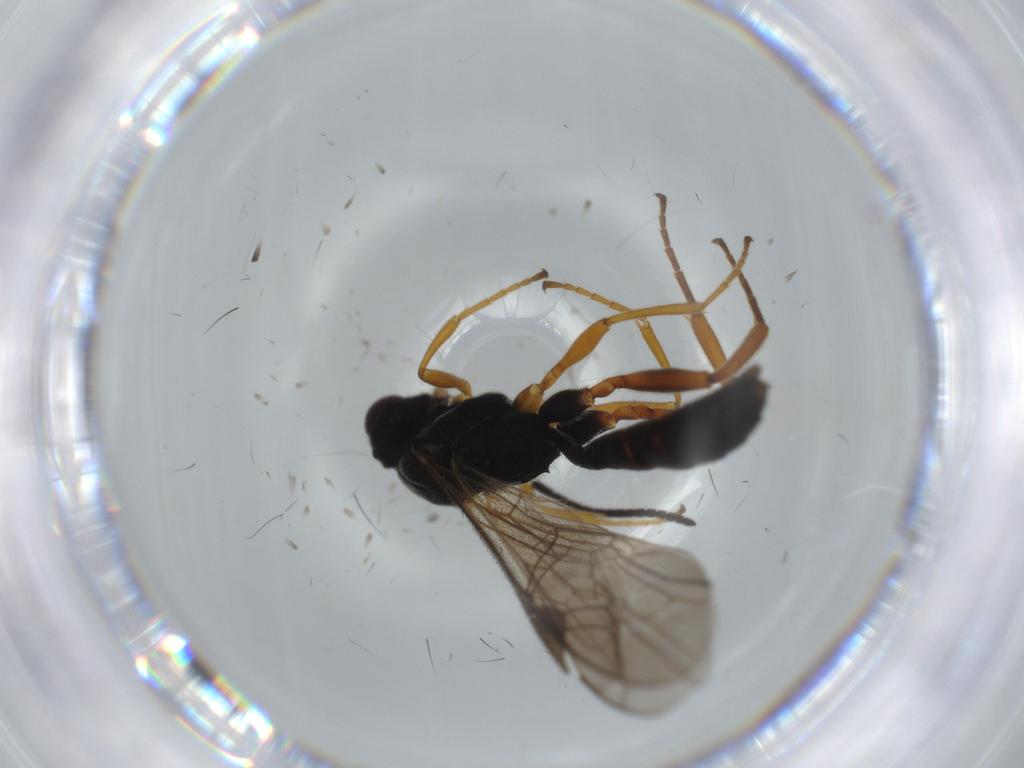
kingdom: Animalia
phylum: Arthropoda
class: Insecta
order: Hymenoptera
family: Ichneumonidae
